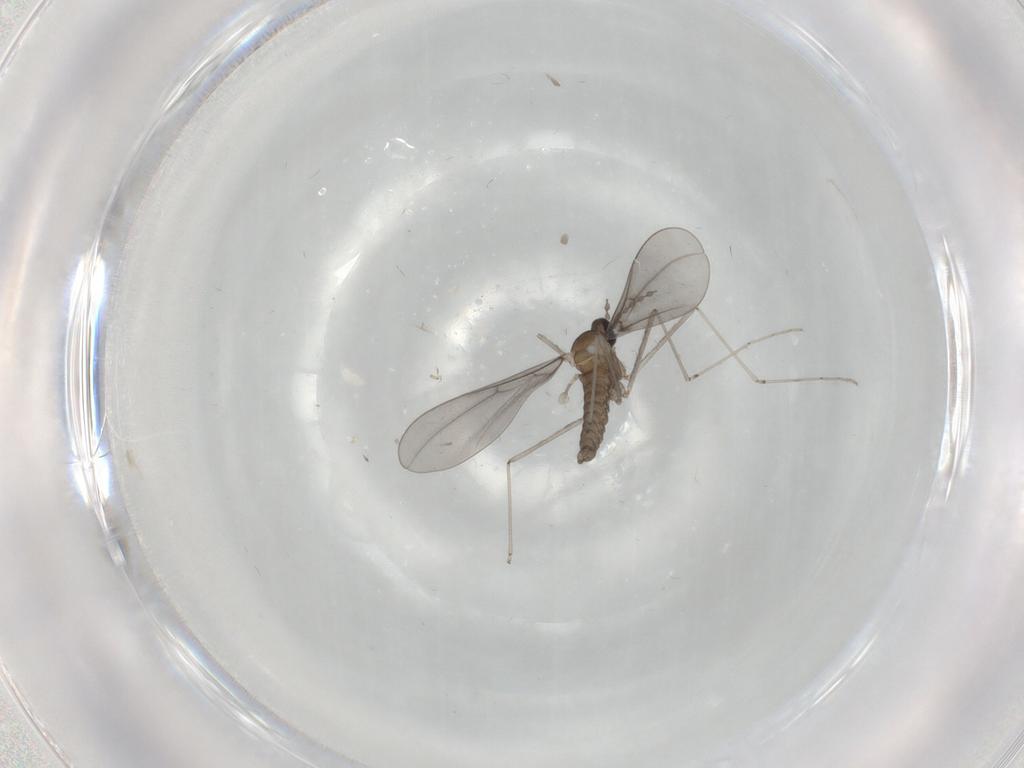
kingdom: Animalia
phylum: Arthropoda
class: Insecta
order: Diptera
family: Cecidomyiidae
